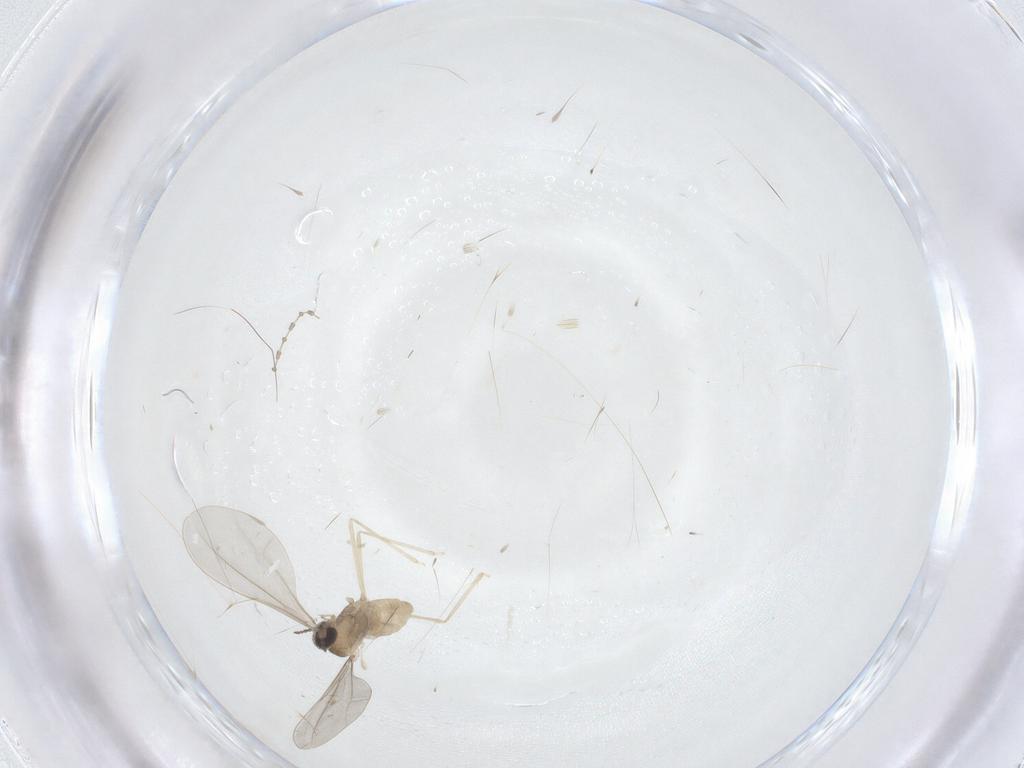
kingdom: Animalia
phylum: Arthropoda
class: Insecta
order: Diptera
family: Cecidomyiidae
